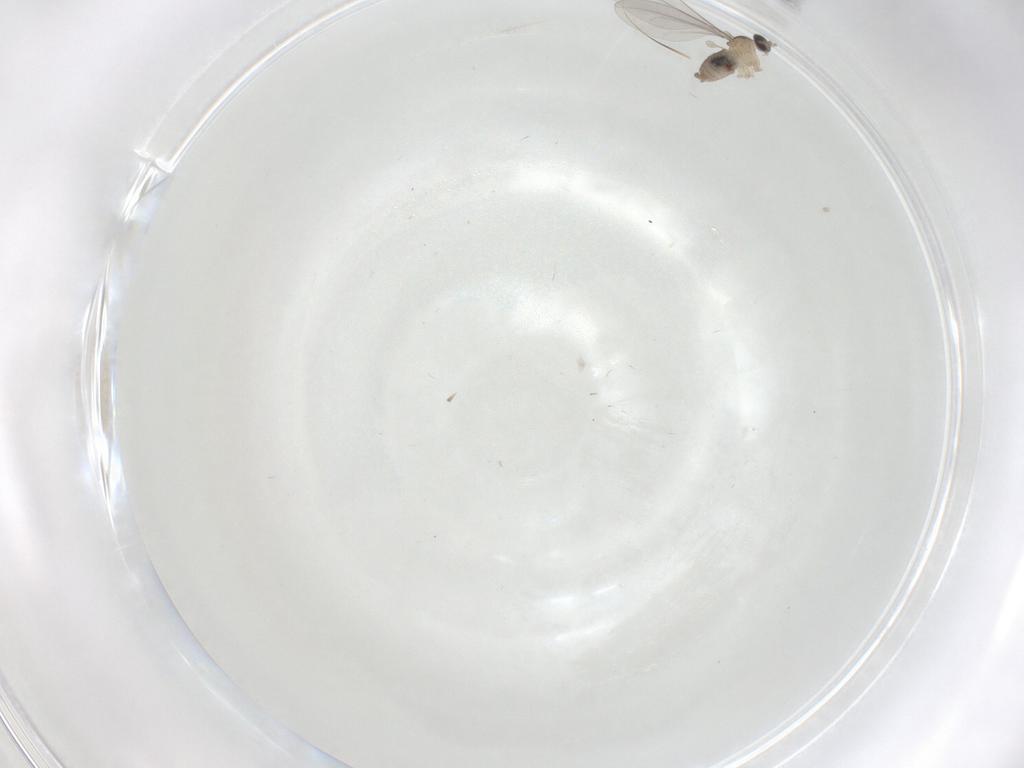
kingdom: Animalia
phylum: Arthropoda
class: Insecta
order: Diptera
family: Cecidomyiidae
